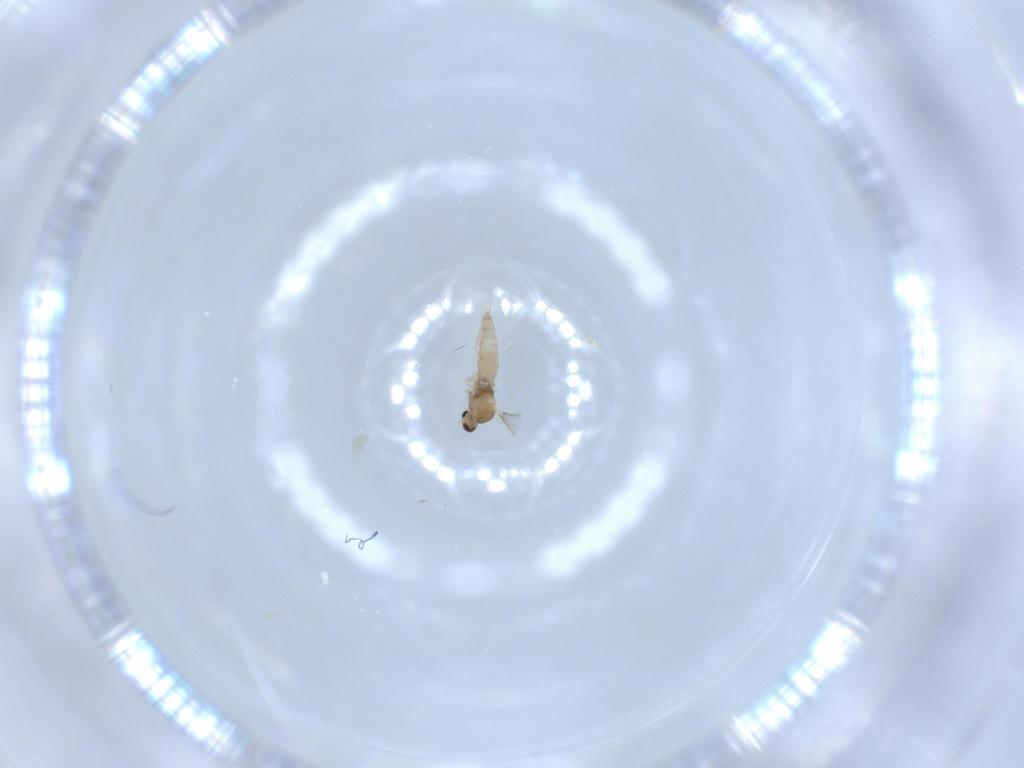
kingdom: Animalia
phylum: Arthropoda
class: Insecta
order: Diptera
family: Cecidomyiidae
